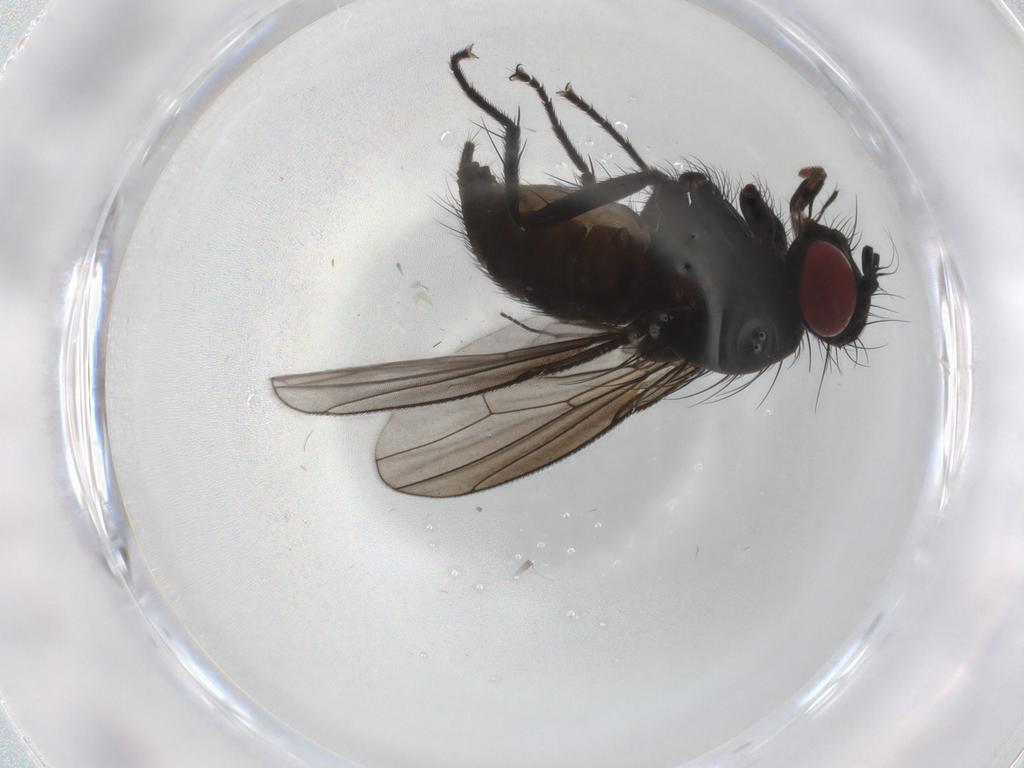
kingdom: Animalia
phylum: Arthropoda
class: Insecta
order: Diptera
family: Muscidae
